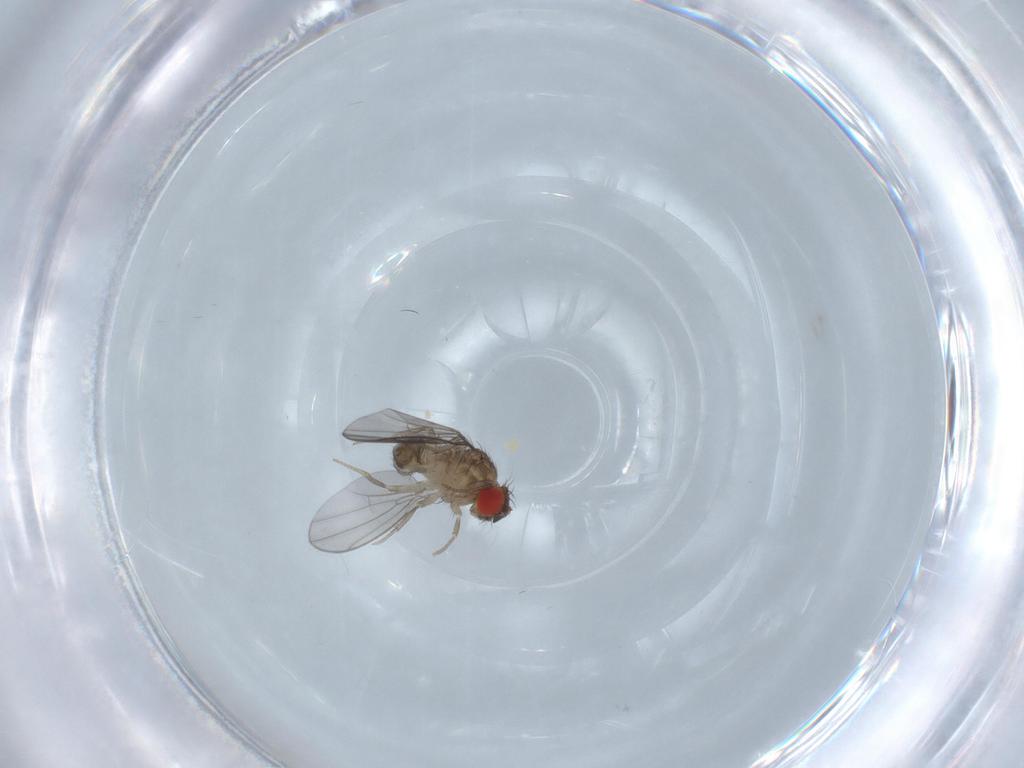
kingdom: Animalia
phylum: Arthropoda
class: Insecta
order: Diptera
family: Drosophilidae
